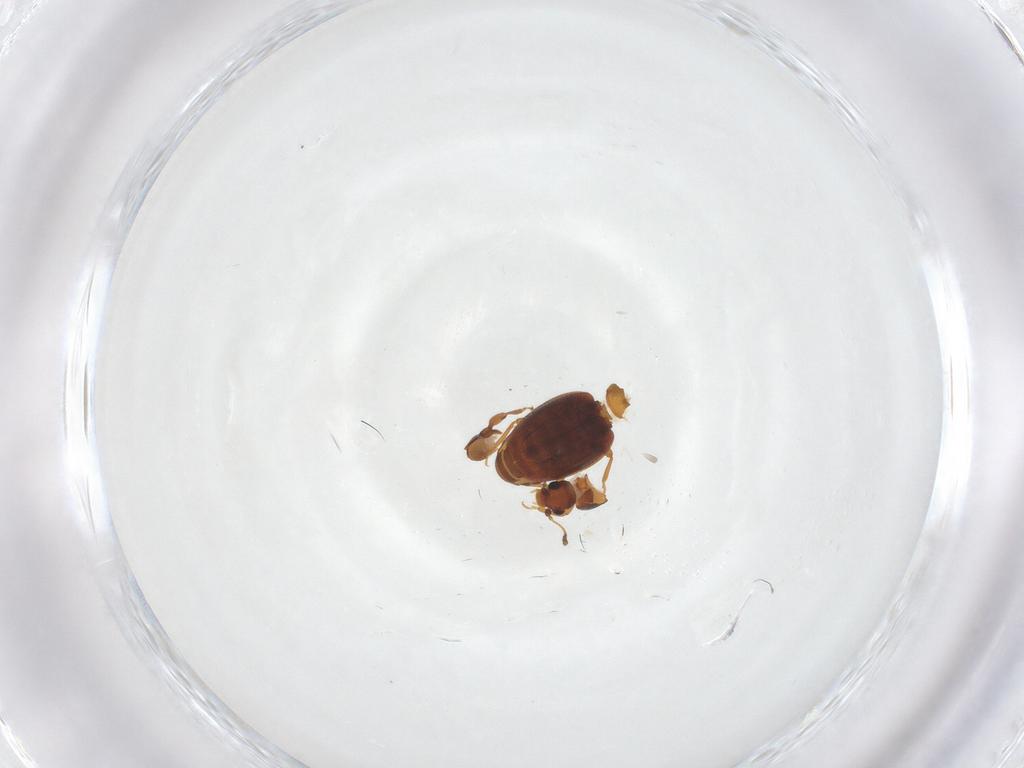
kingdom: Animalia
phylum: Arthropoda
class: Insecta
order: Coleoptera
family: Latridiidae
